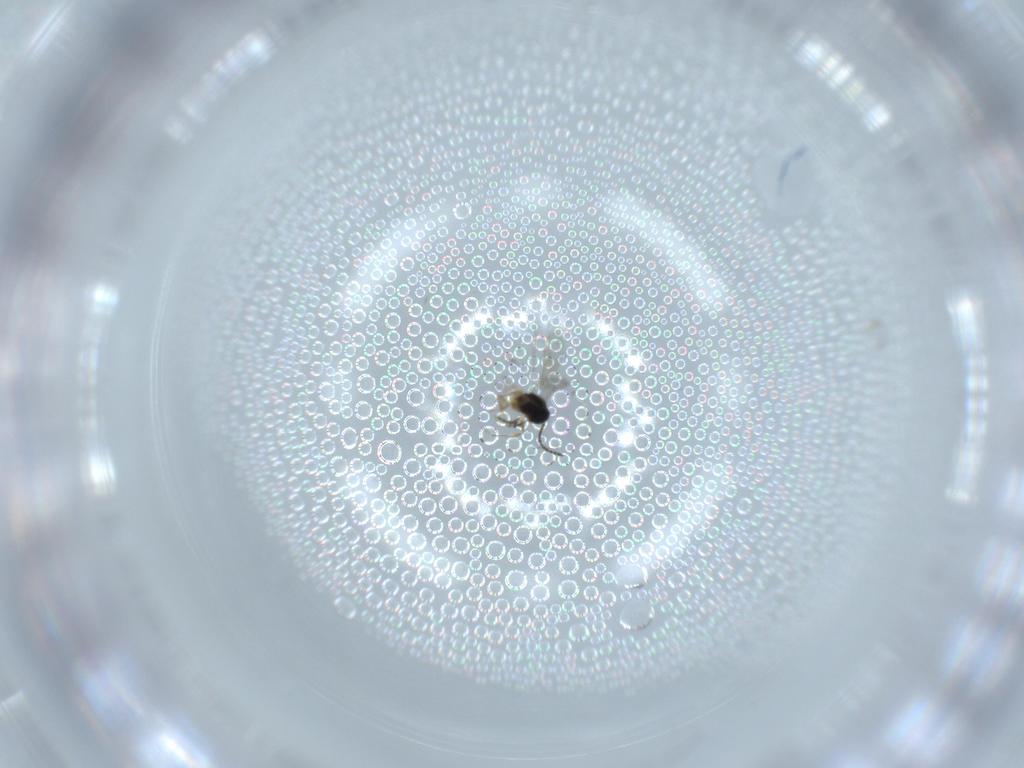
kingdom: Animalia
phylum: Arthropoda
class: Insecta
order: Hymenoptera
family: Scelionidae
